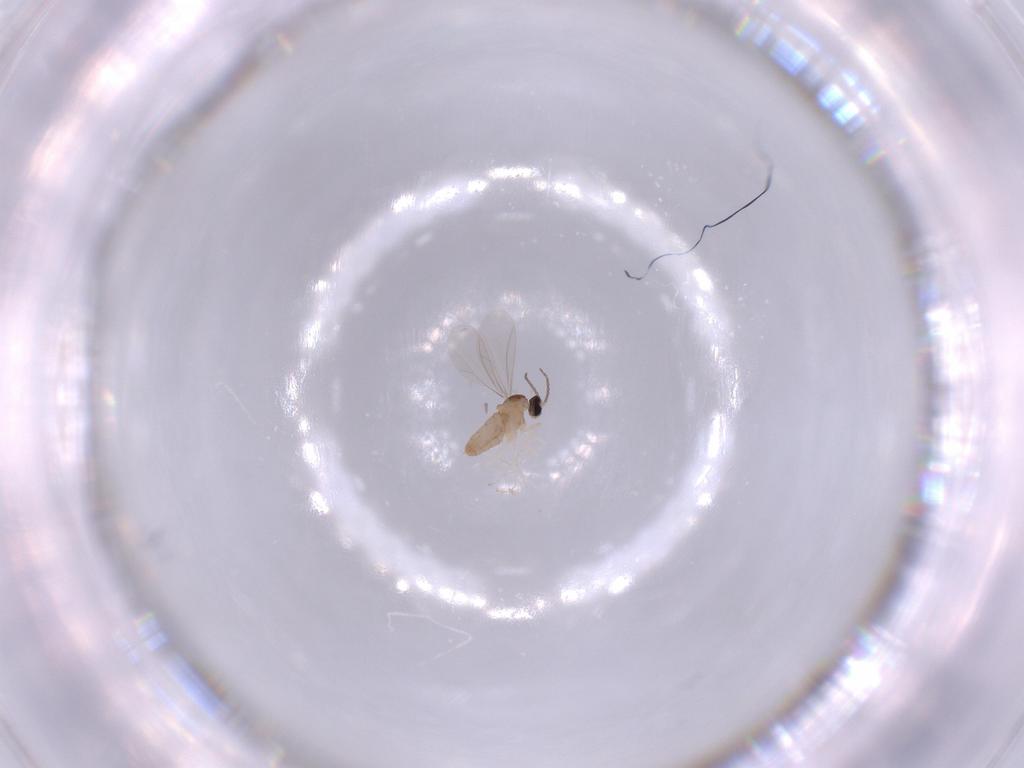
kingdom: Animalia
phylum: Arthropoda
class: Insecta
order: Diptera
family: Cecidomyiidae
